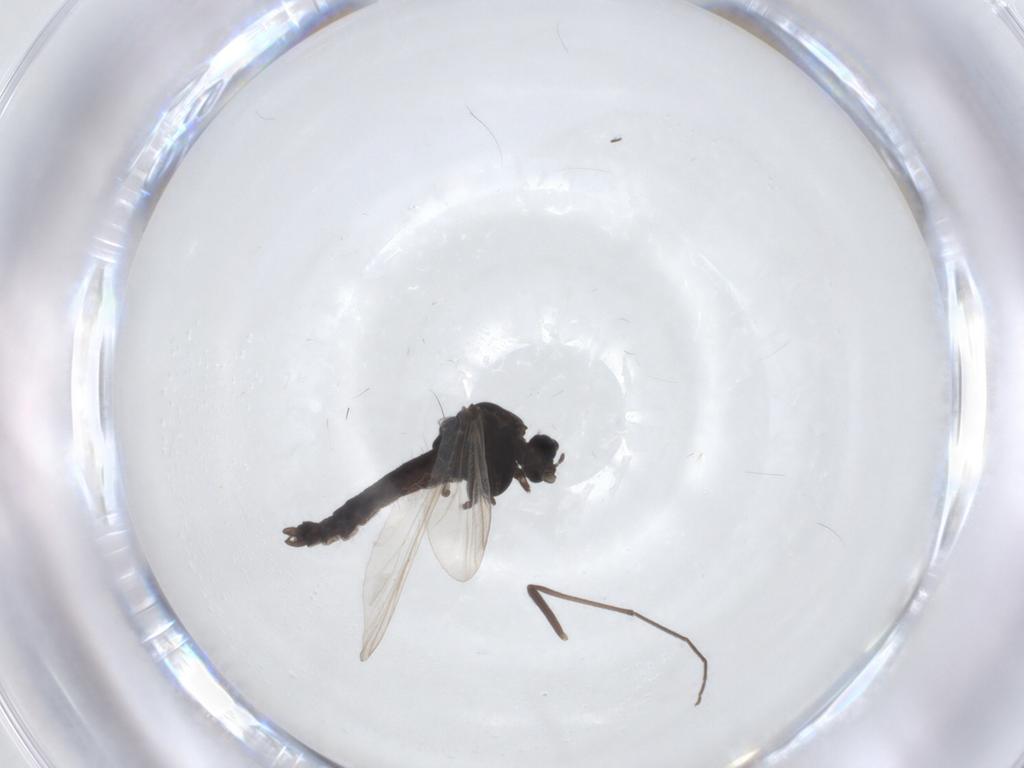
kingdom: Animalia
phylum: Arthropoda
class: Insecta
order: Diptera
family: Chironomidae
